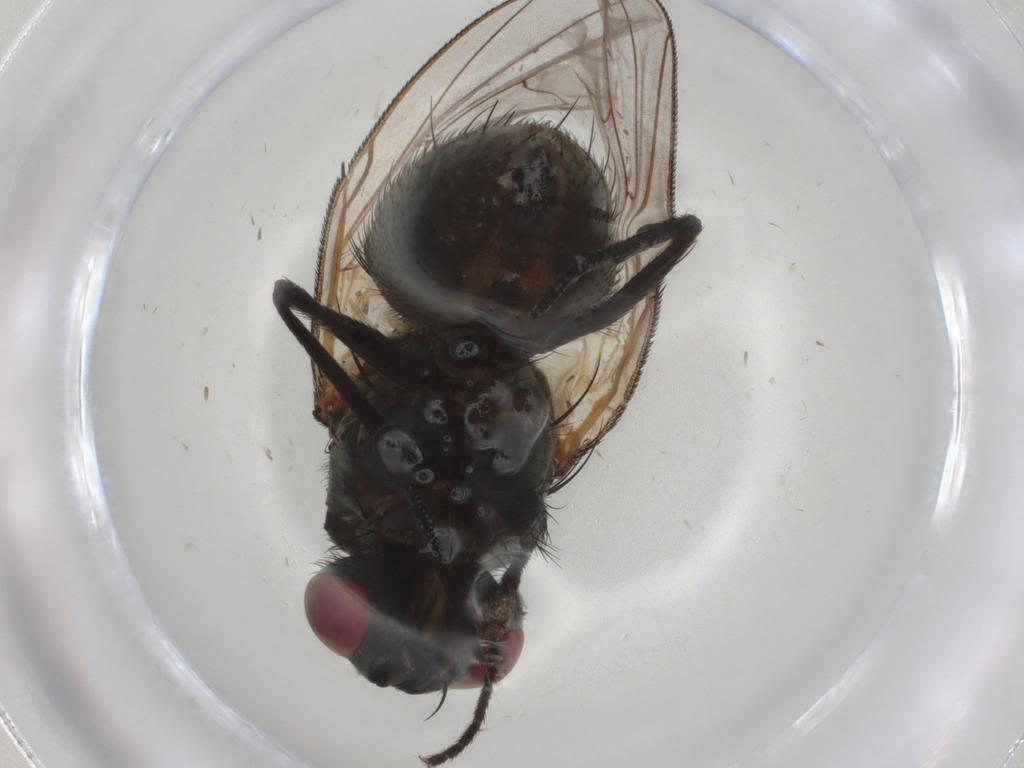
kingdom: Animalia
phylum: Arthropoda
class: Insecta
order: Diptera
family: Muscidae
